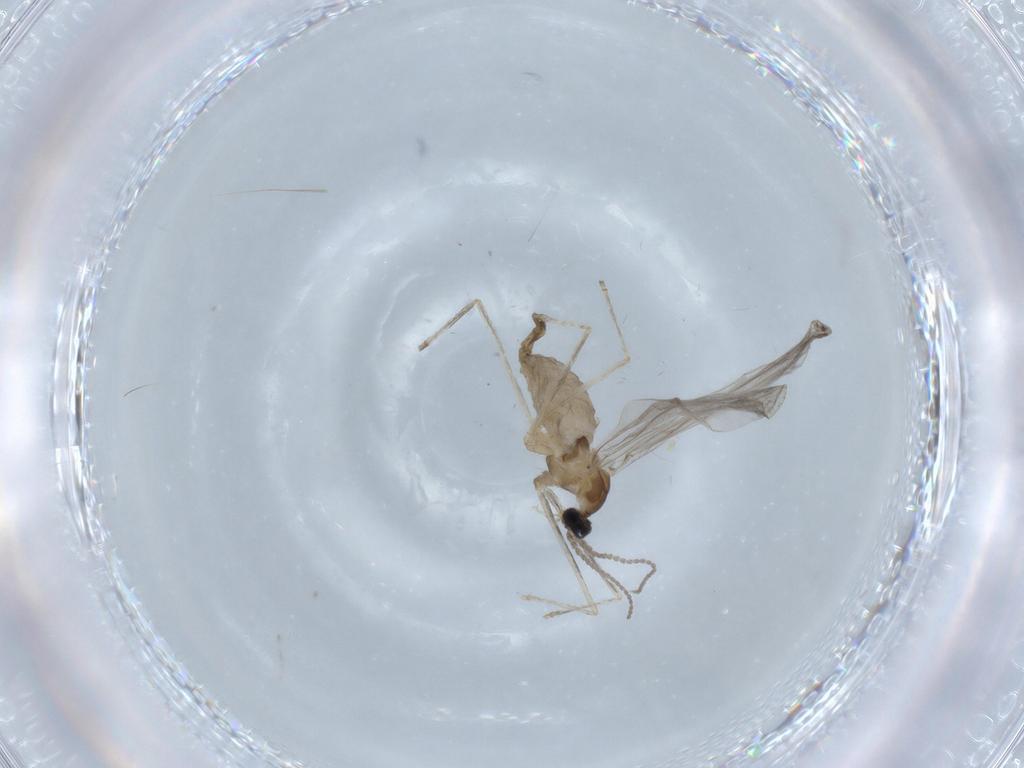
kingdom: Animalia
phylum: Arthropoda
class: Insecta
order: Diptera
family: Cecidomyiidae
